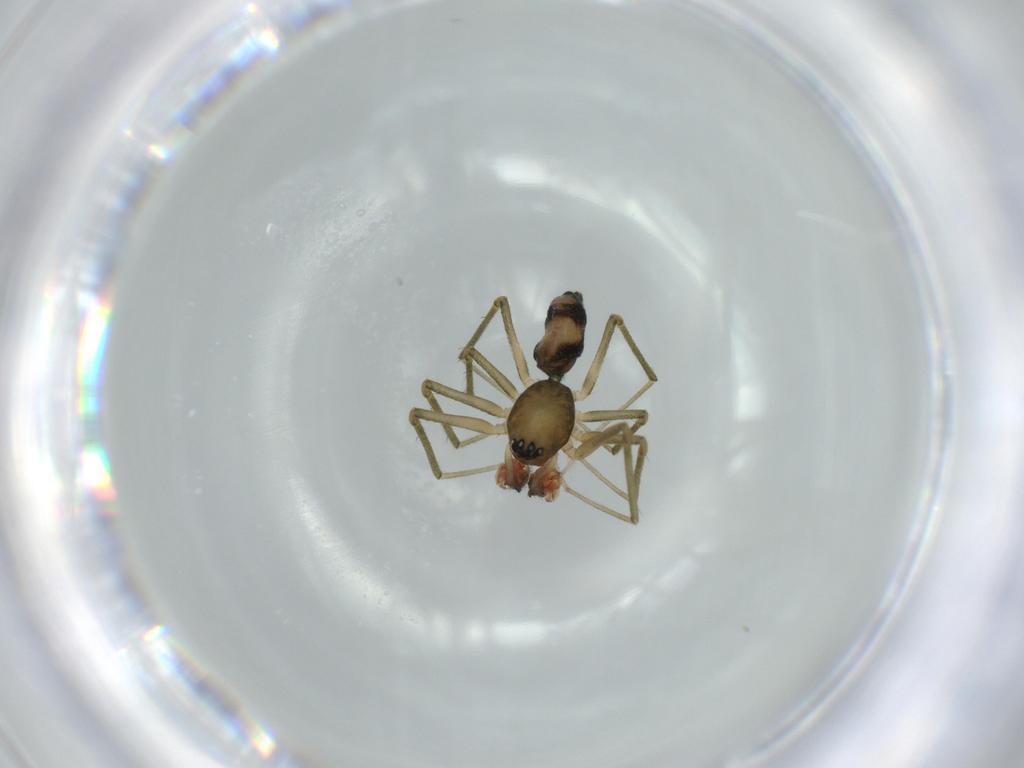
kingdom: Animalia
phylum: Arthropoda
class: Arachnida
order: Araneae
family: Linyphiidae
